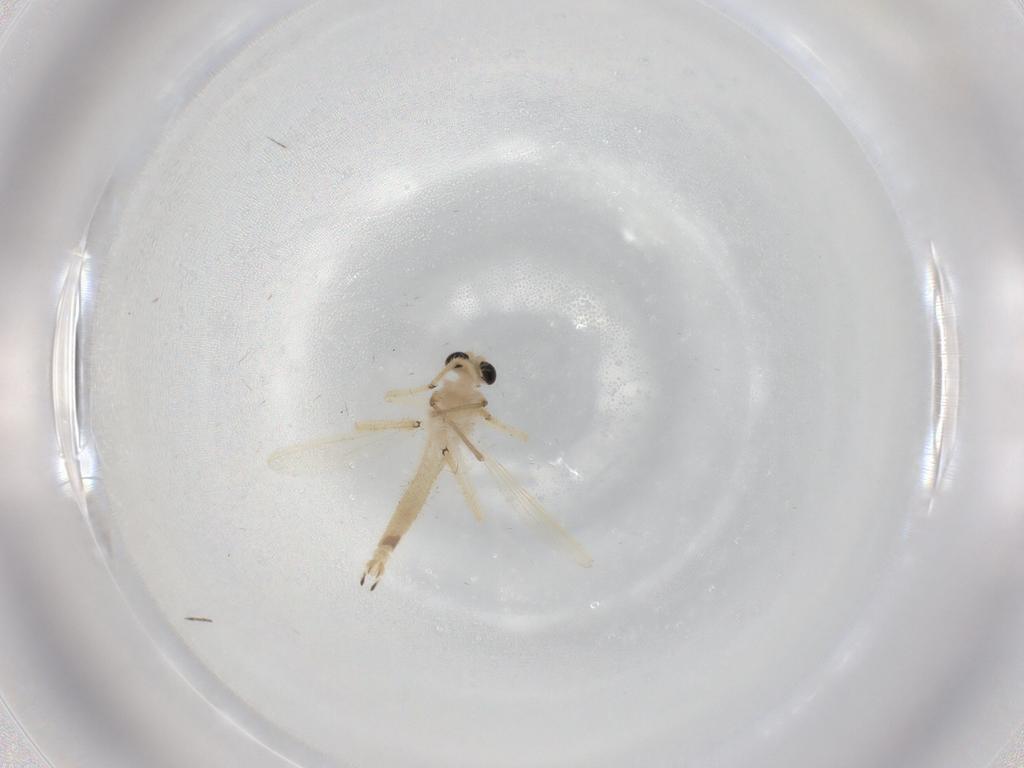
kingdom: Animalia
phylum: Arthropoda
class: Insecta
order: Diptera
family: Chironomidae
